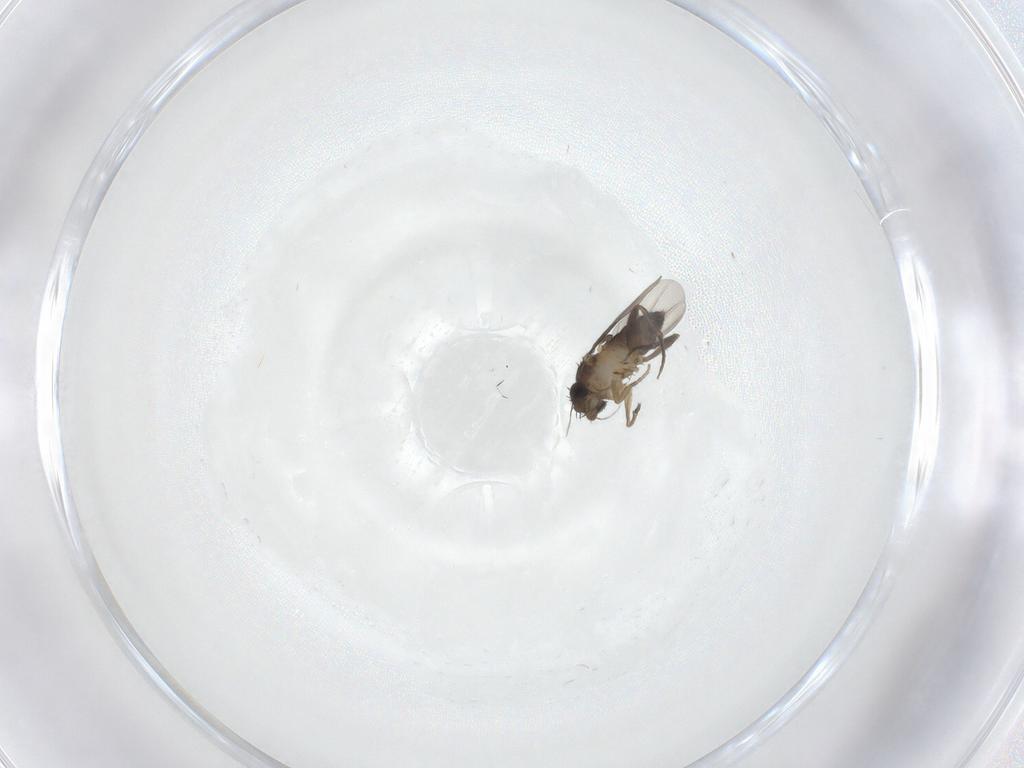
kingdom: Animalia
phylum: Arthropoda
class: Insecta
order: Diptera
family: Phoridae
